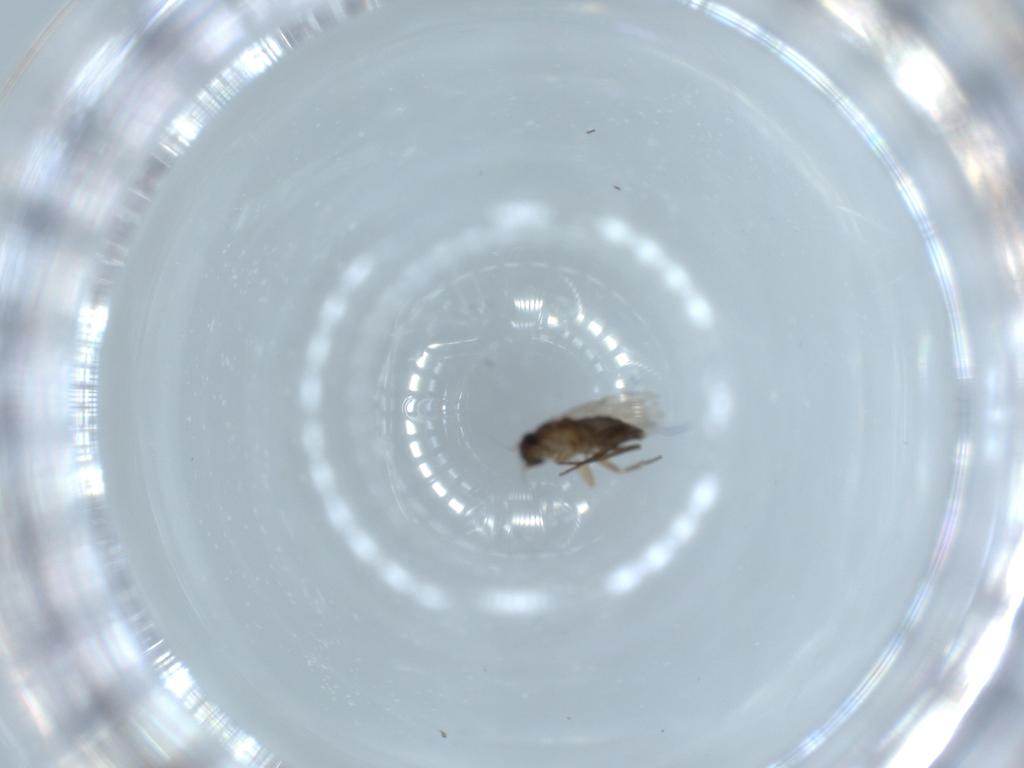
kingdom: Animalia
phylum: Arthropoda
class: Insecta
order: Diptera
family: Phoridae
